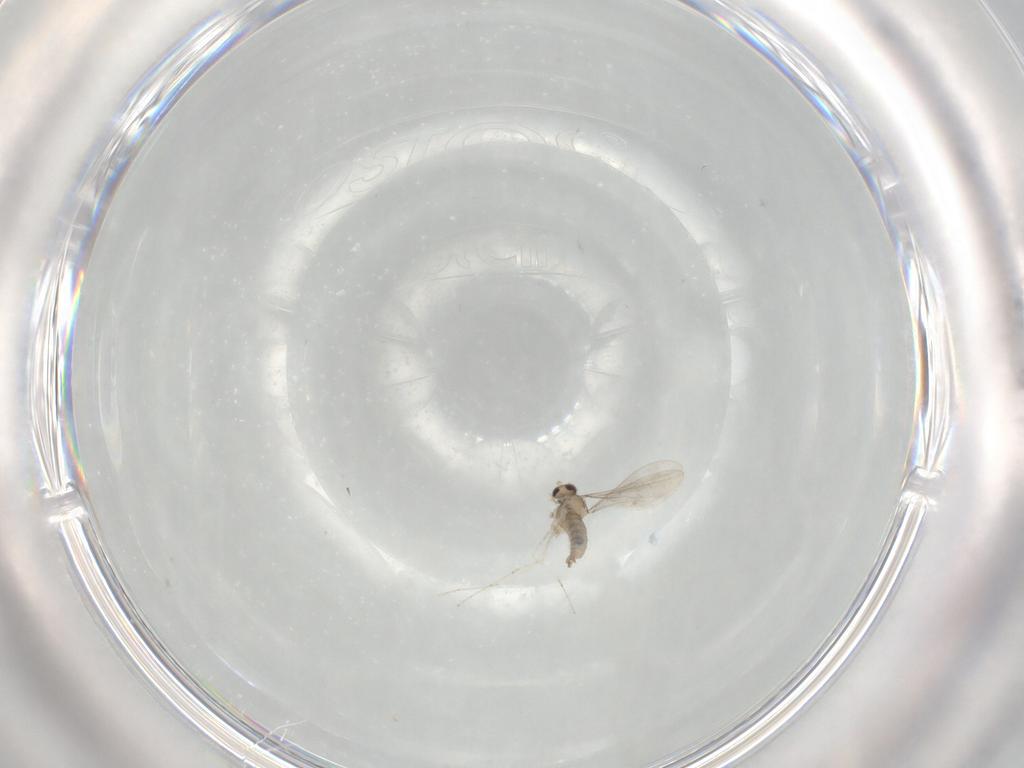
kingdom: Animalia
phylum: Arthropoda
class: Insecta
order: Diptera
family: Cecidomyiidae
